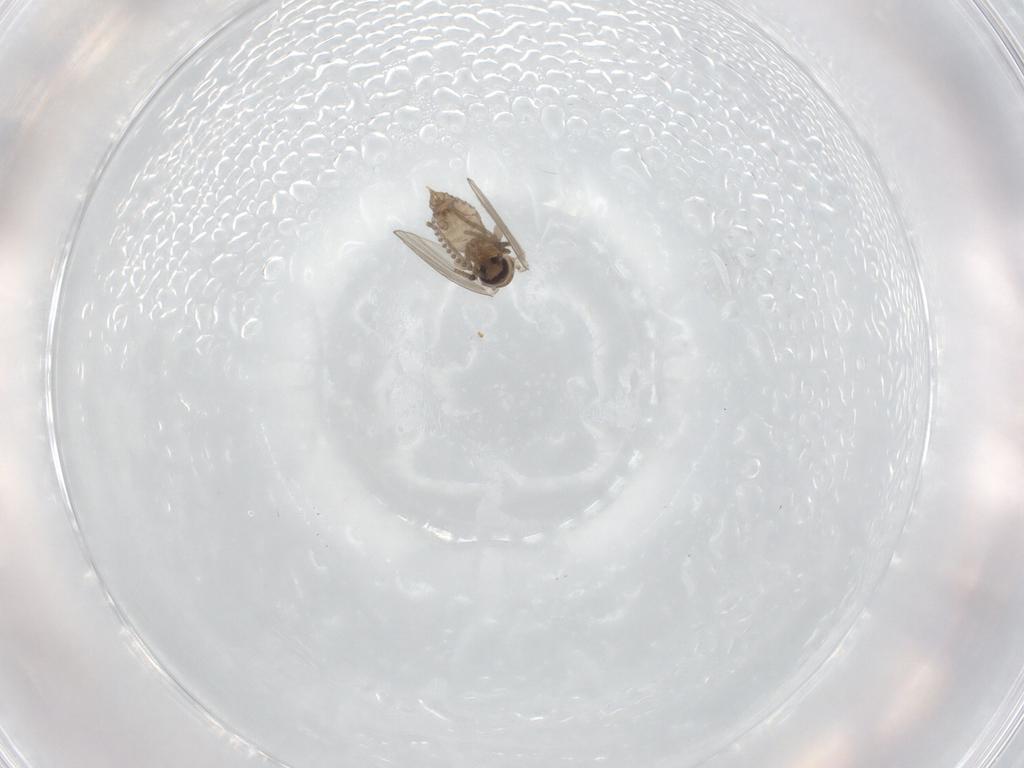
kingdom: Animalia
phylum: Arthropoda
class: Insecta
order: Diptera
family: Psychodidae
